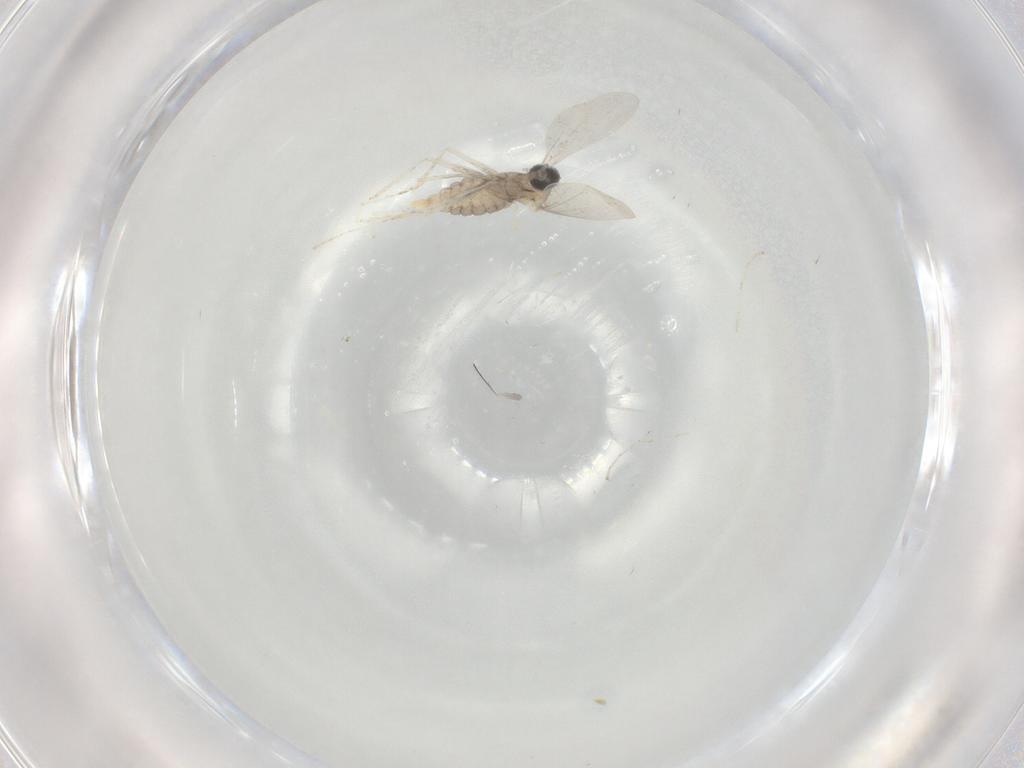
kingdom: Animalia
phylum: Arthropoda
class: Insecta
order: Diptera
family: Cecidomyiidae
